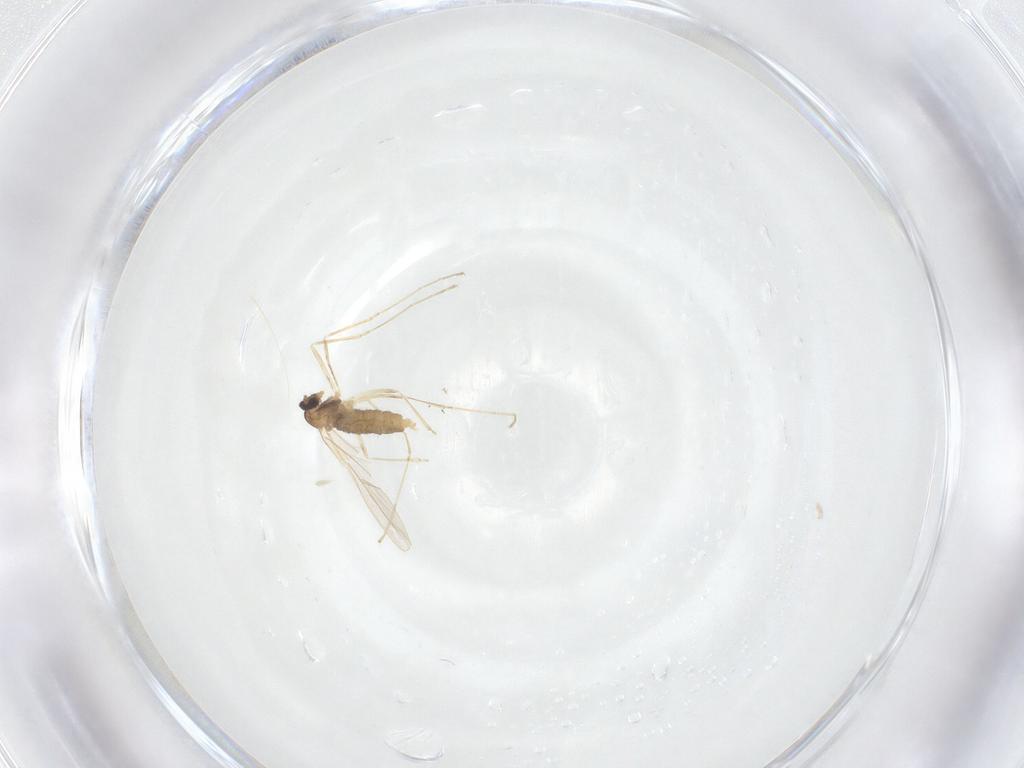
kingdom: Animalia
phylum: Arthropoda
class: Insecta
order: Diptera
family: Cecidomyiidae
